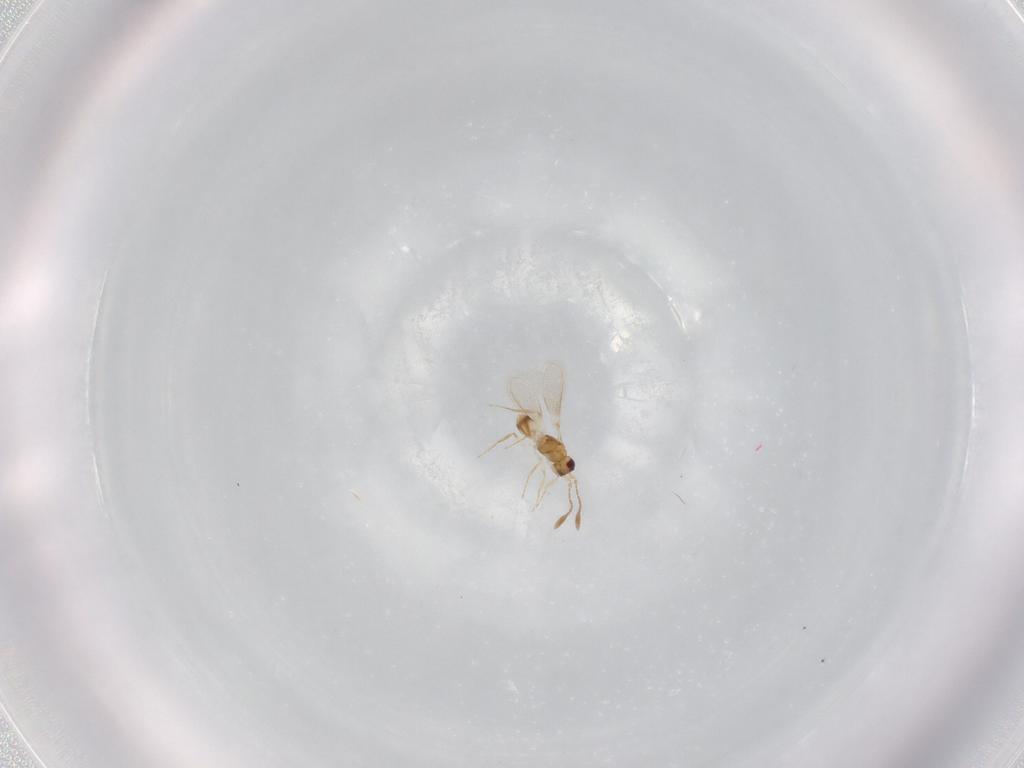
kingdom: Animalia
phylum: Arthropoda
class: Insecta
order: Hymenoptera
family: Mymaridae
